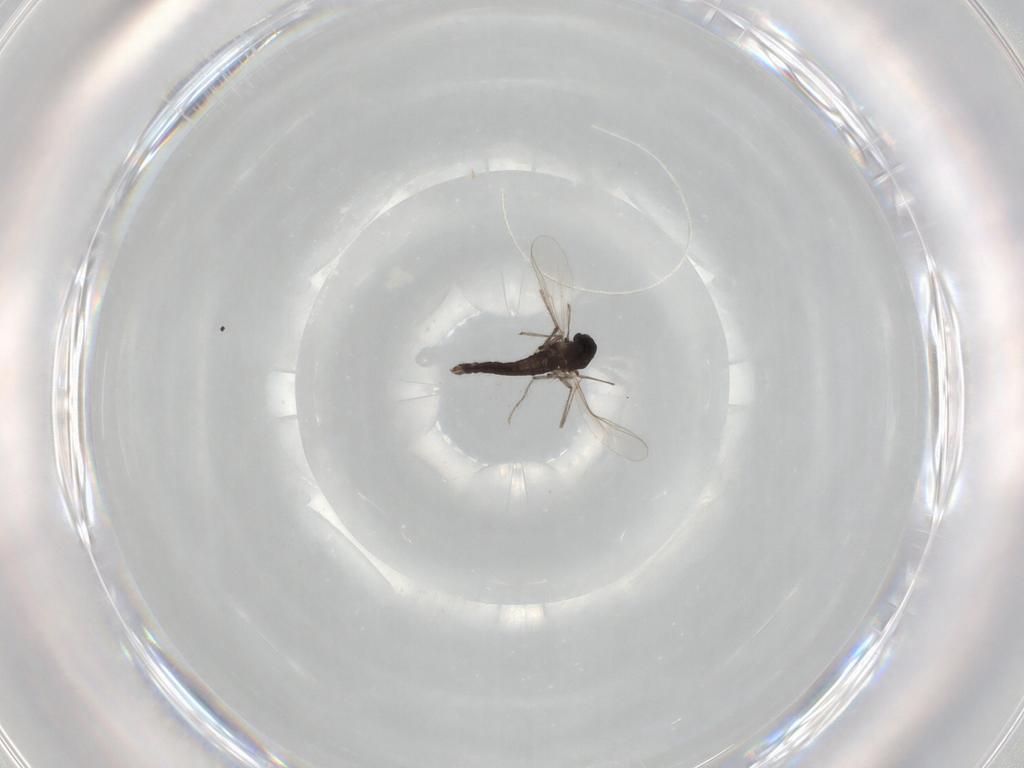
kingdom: Animalia
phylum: Arthropoda
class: Insecta
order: Diptera
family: Chironomidae
